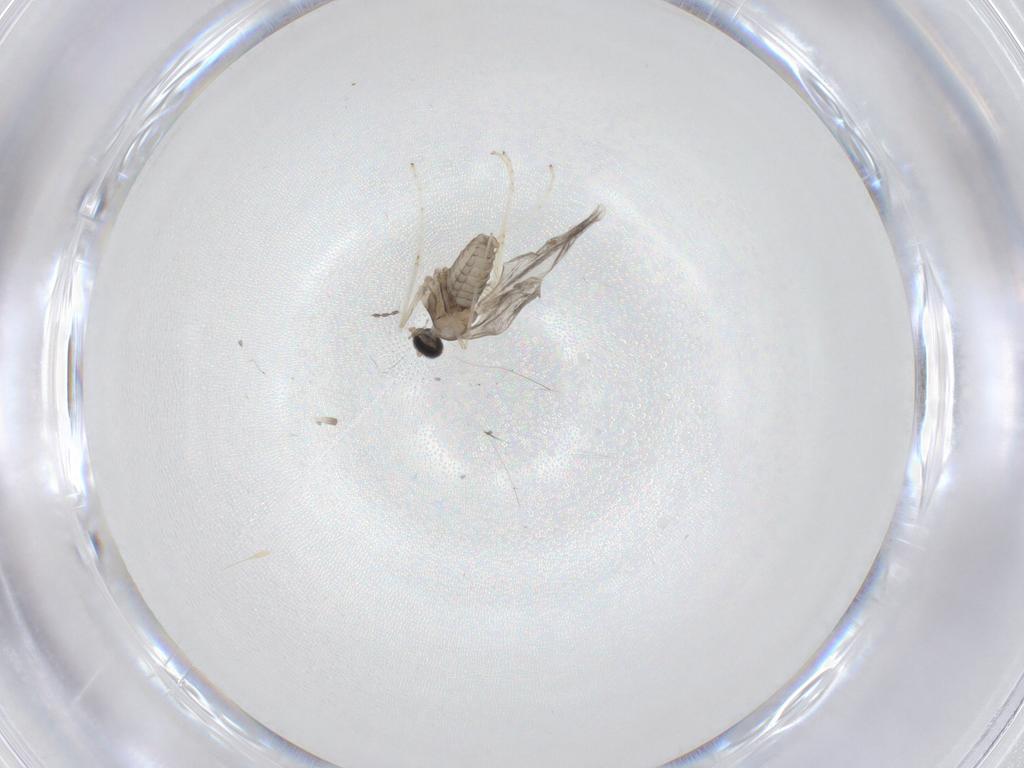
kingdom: Animalia
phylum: Arthropoda
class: Insecta
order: Diptera
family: Cecidomyiidae
